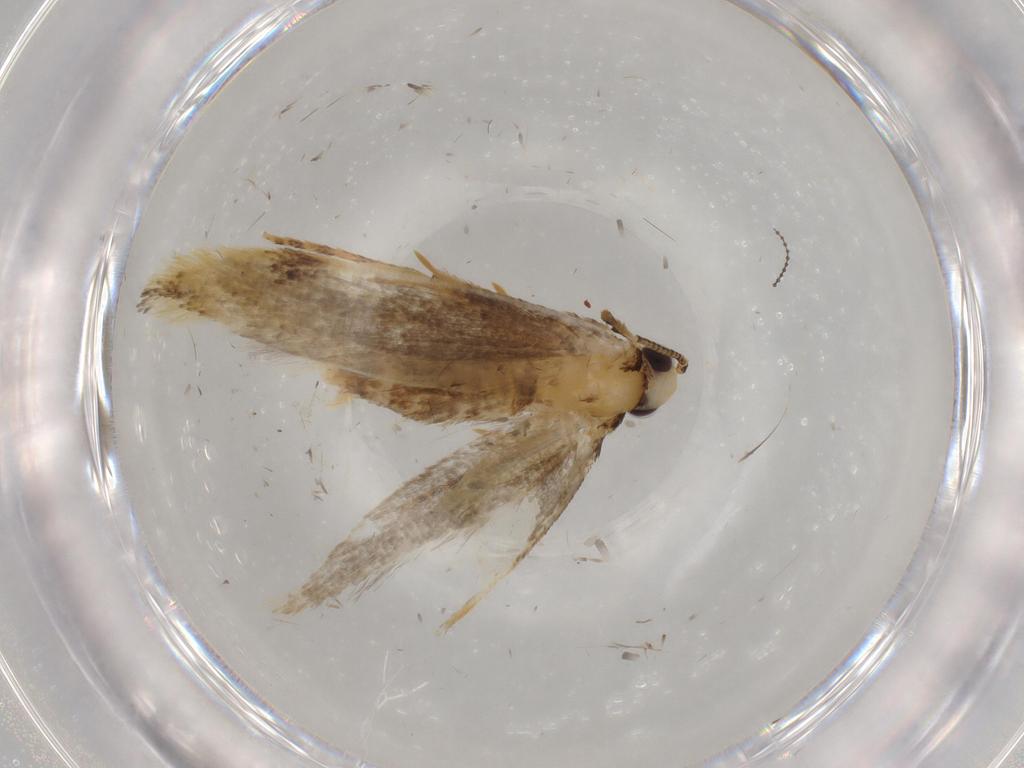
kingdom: Animalia
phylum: Arthropoda
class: Insecta
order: Lepidoptera
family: Tineidae
